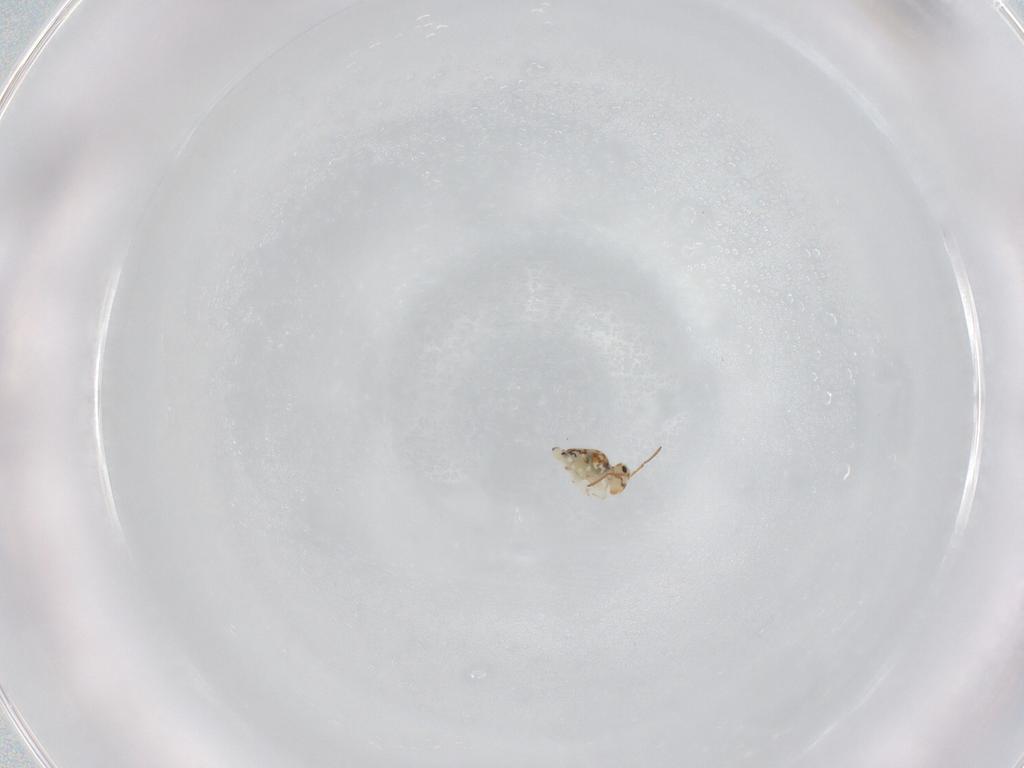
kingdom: Animalia
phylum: Arthropoda
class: Collembola
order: Symphypleona
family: Bourletiellidae
